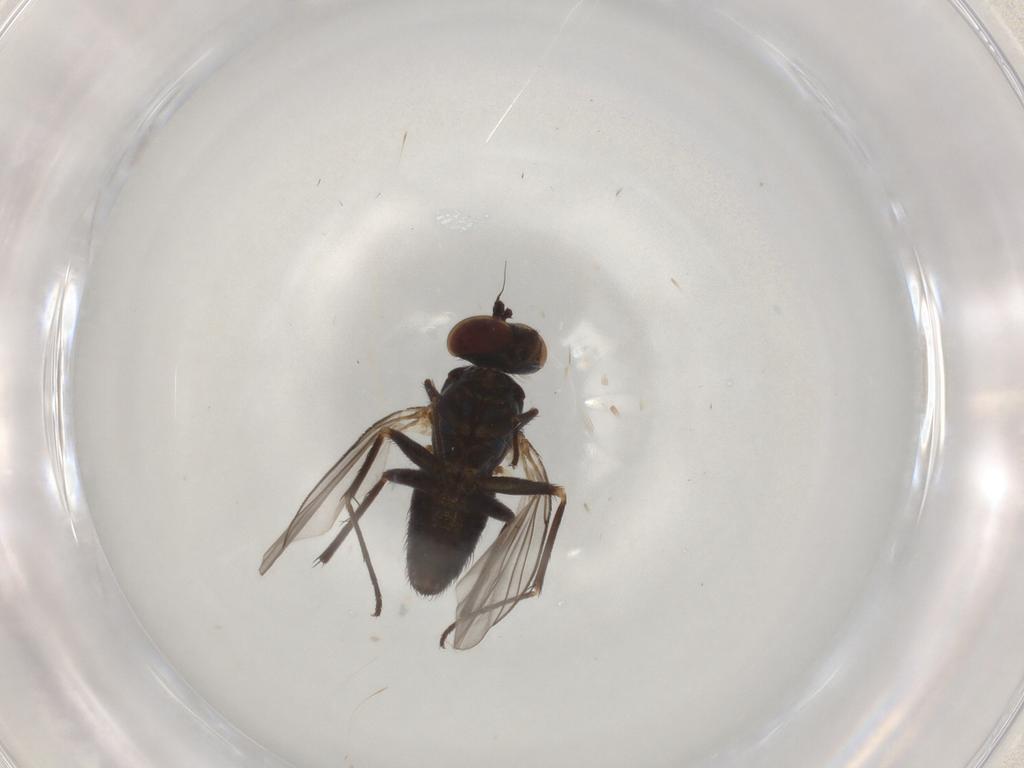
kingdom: Animalia
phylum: Arthropoda
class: Insecta
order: Diptera
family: Dolichopodidae
